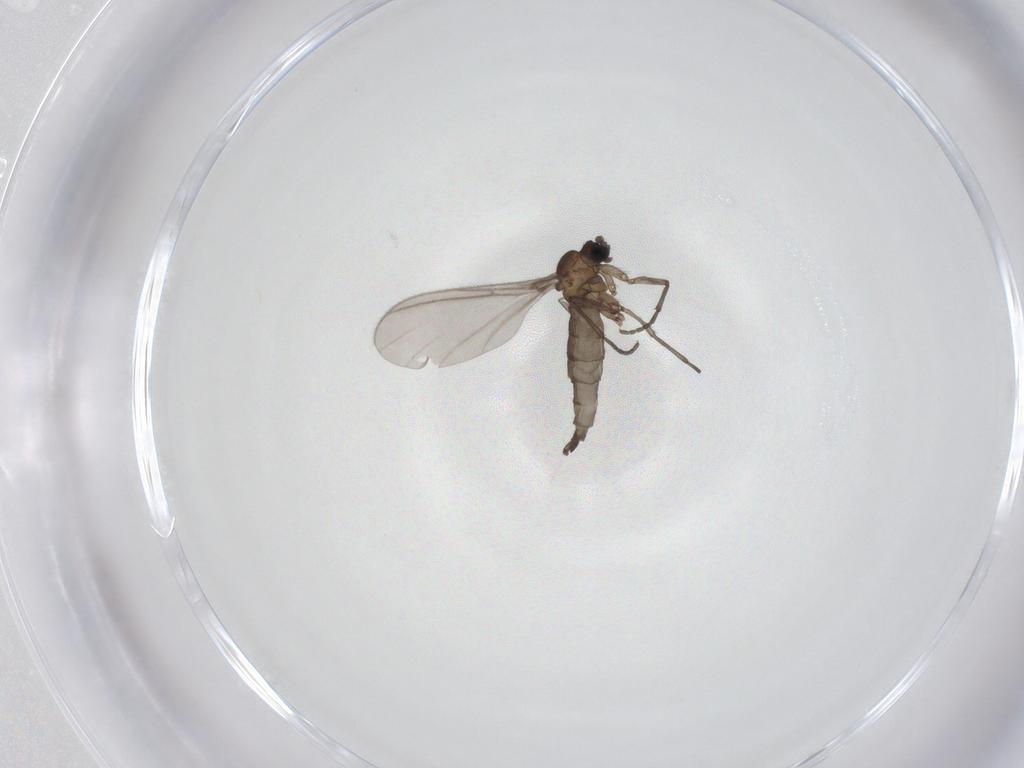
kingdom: Animalia
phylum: Arthropoda
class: Insecta
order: Diptera
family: Sciaridae
